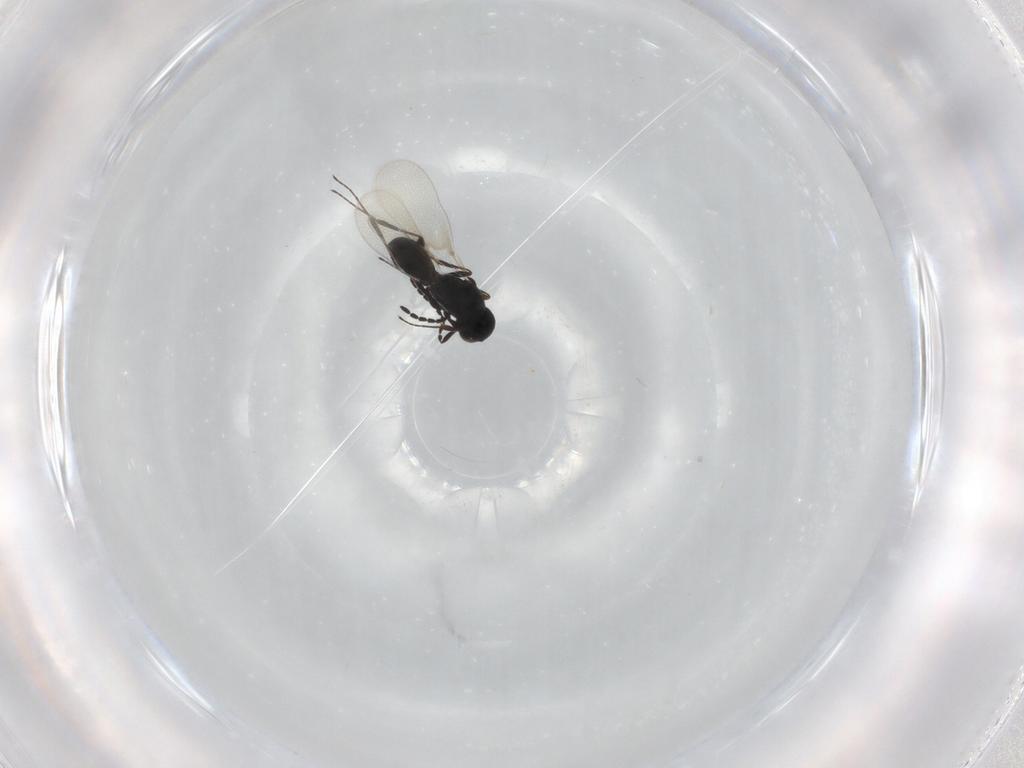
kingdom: Animalia
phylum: Arthropoda
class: Insecta
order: Hymenoptera
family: Platygastridae
